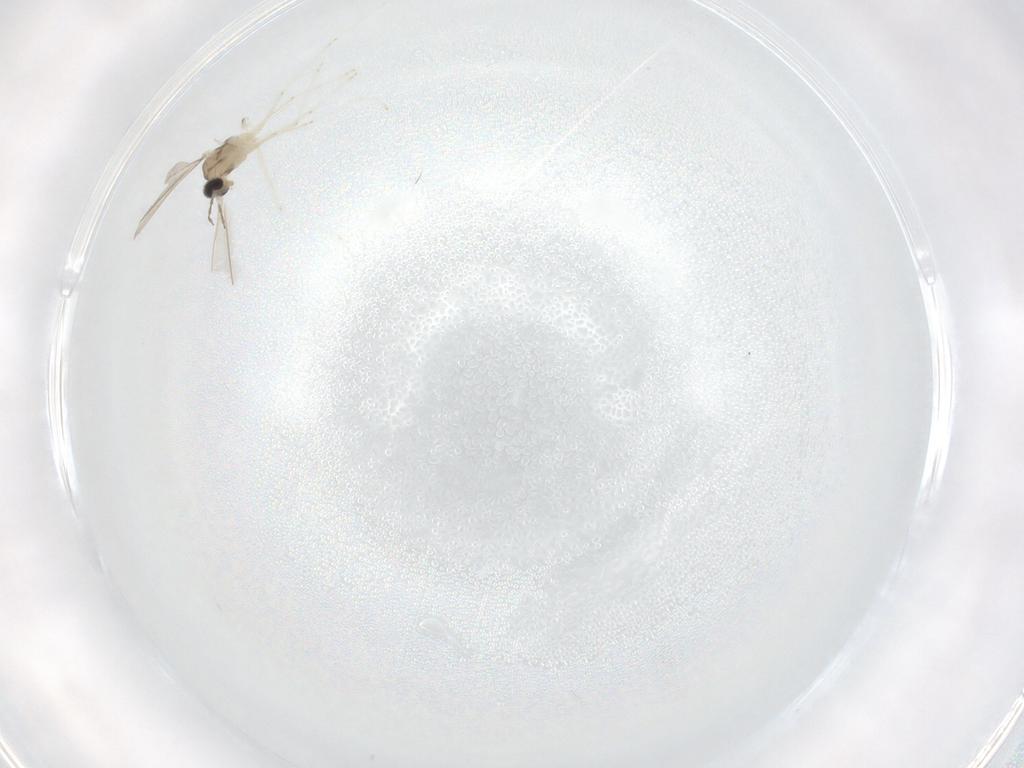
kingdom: Animalia
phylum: Arthropoda
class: Insecta
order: Diptera
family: Cecidomyiidae
